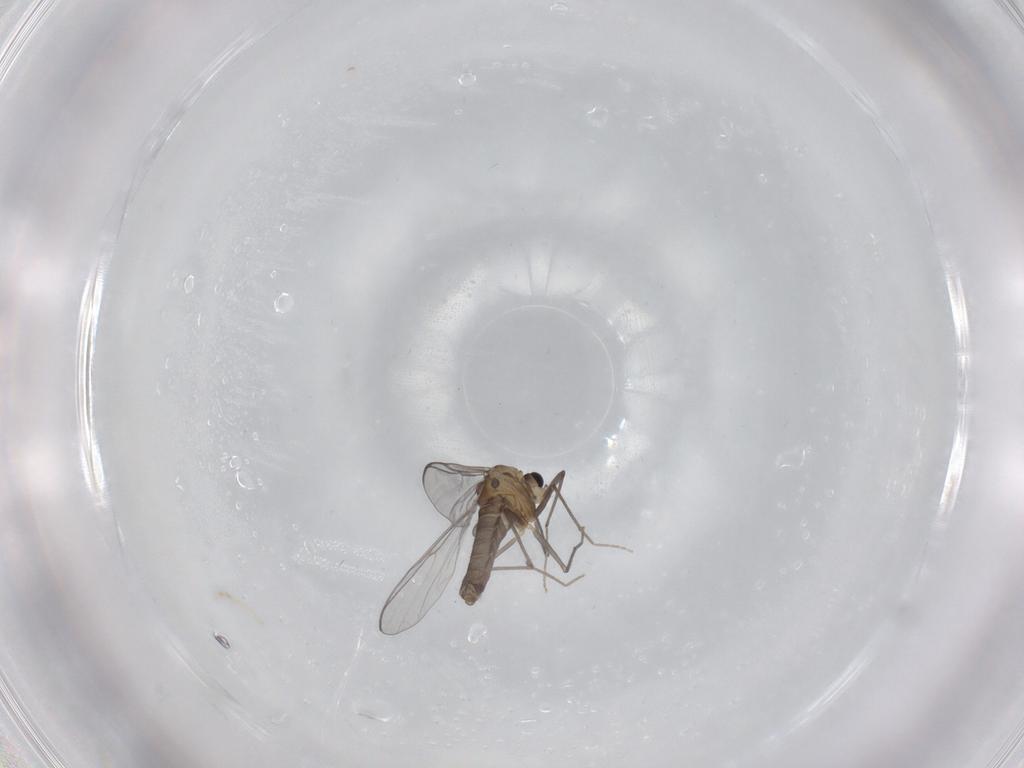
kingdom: Animalia
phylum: Arthropoda
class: Insecta
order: Diptera
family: Chironomidae
